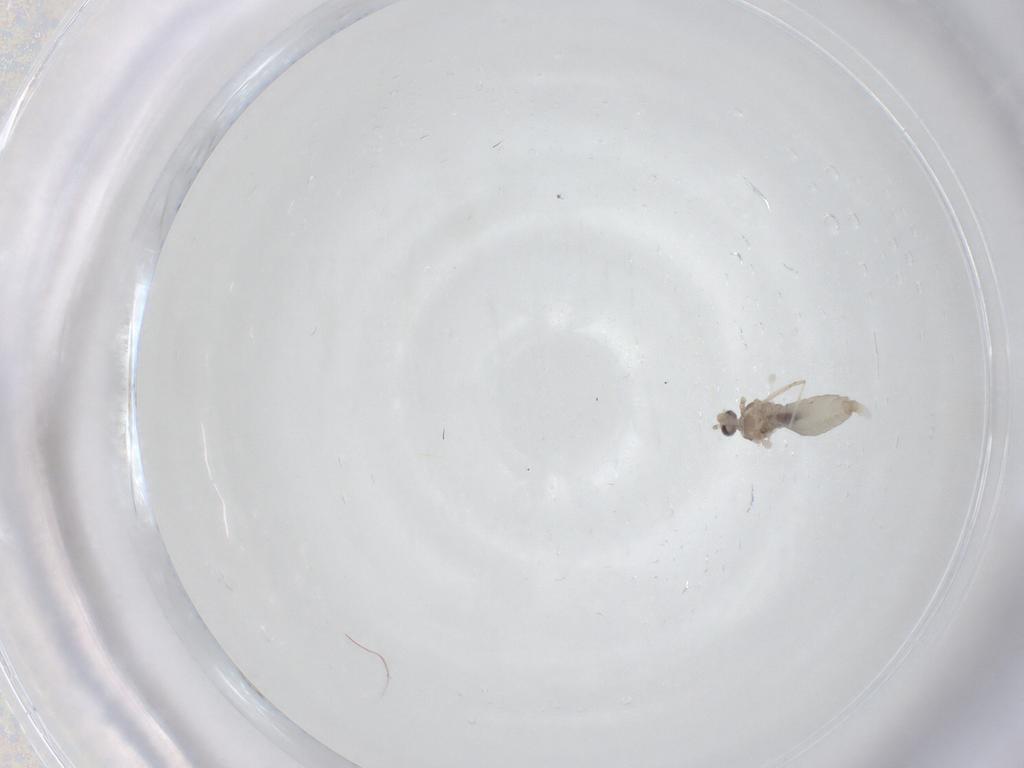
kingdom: Animalia
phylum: Arthropoda
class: Insecta
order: Diptera
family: Cecidomyiidae
